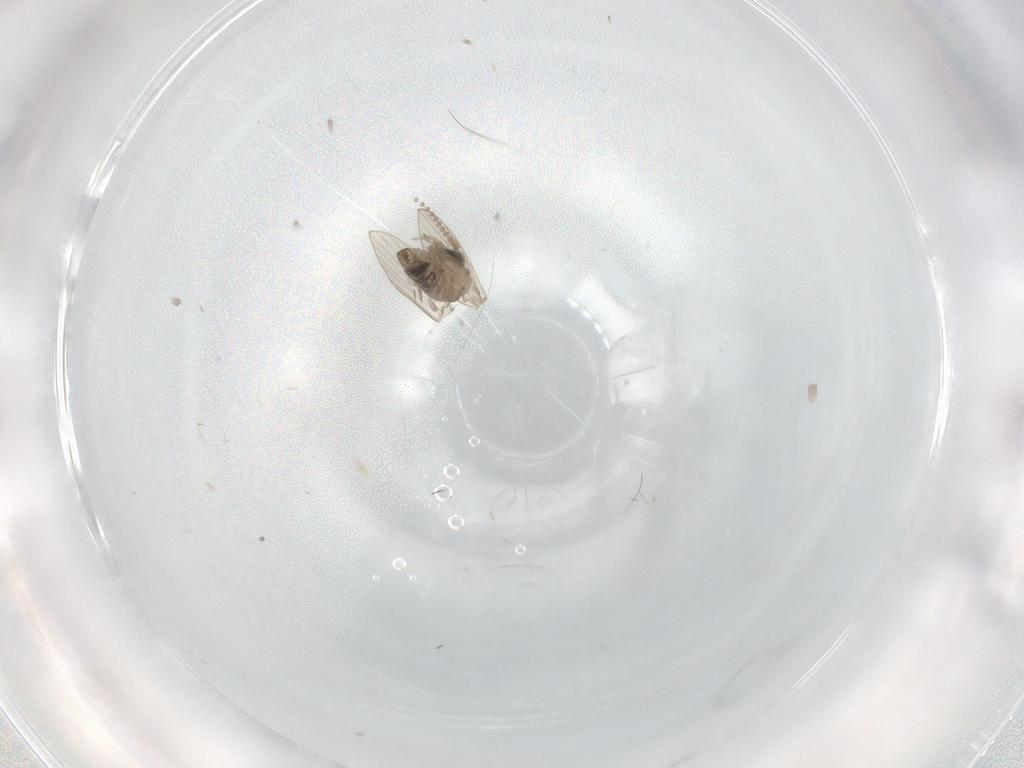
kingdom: Animalia
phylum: Arthropoda
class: Insecta
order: Diptera
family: Psychodidae
